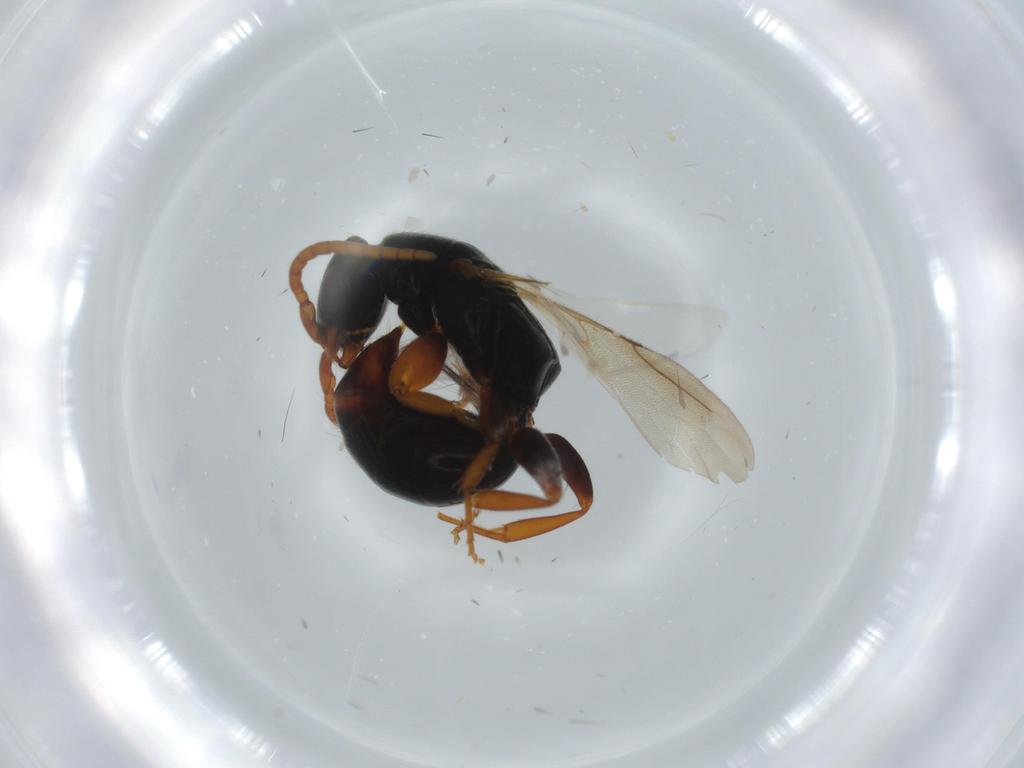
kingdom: Animalia
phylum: Arthropoda
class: Insecta
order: Hymenoptera
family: Bethylidae
